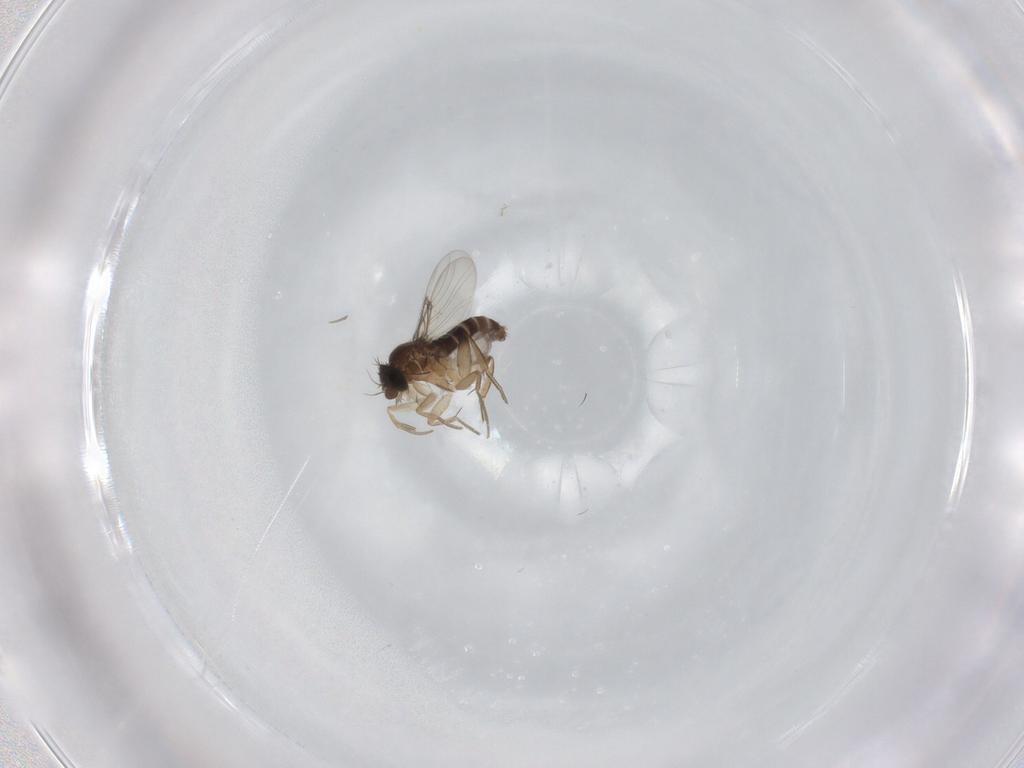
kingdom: Animalia
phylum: Arthropoda
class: Insecta
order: Diptera
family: Phoridae
